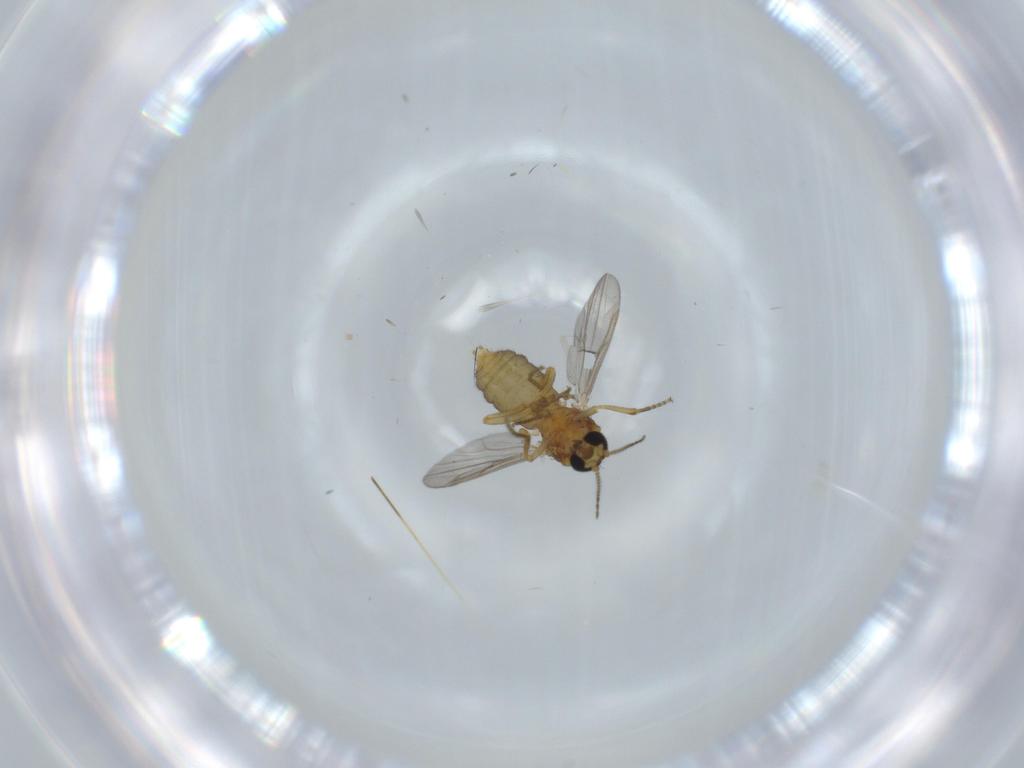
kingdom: Animalia
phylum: Arthropoda
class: Insecta
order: Diptera
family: Ceratopogonidae
